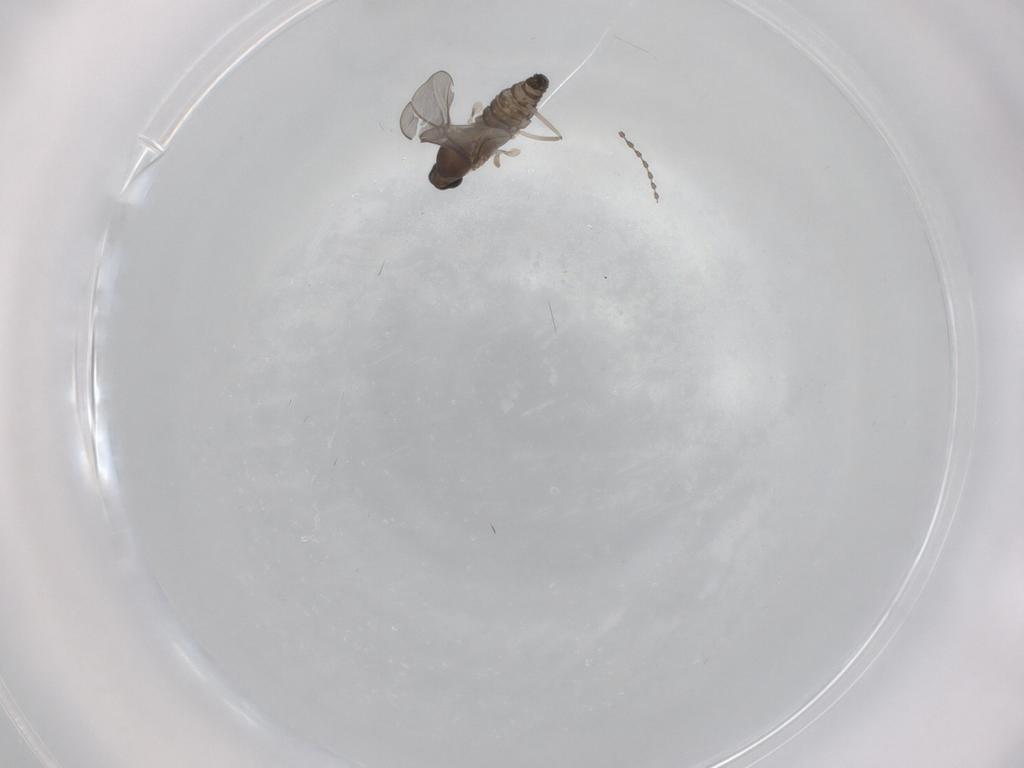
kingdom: Animalia
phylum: Arthropoda
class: Insecta
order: Diptera
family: Cecidomyiidae
